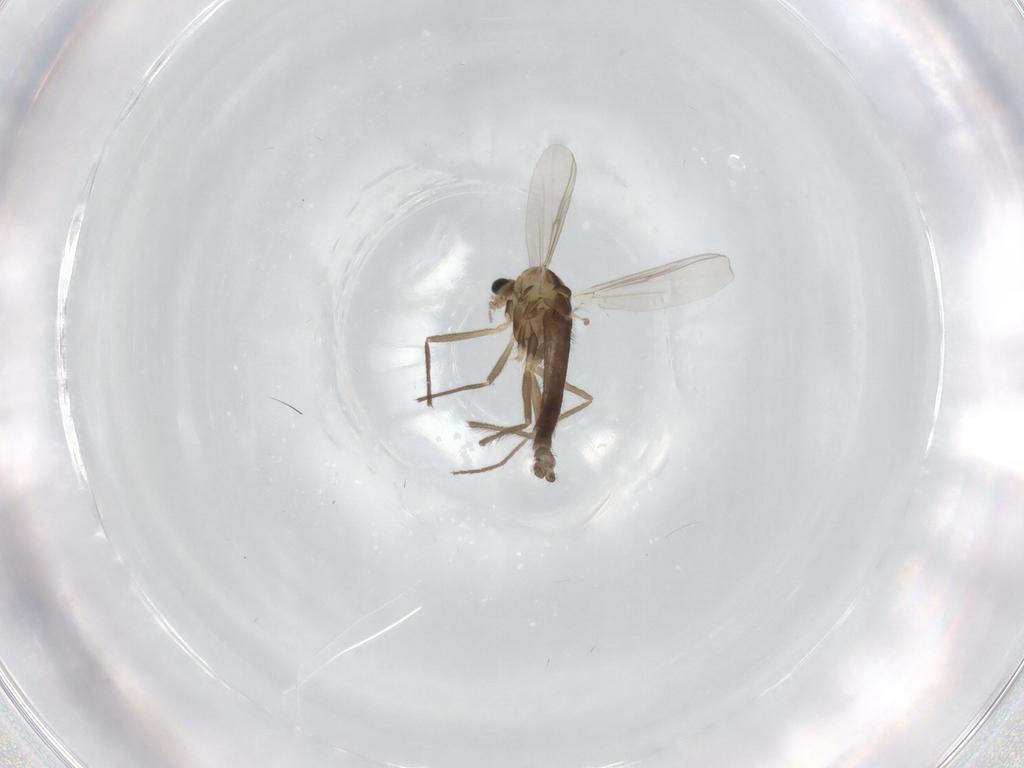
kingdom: Animalia
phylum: Arthropoda
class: Insecta
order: Diptera
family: Chironomidae
